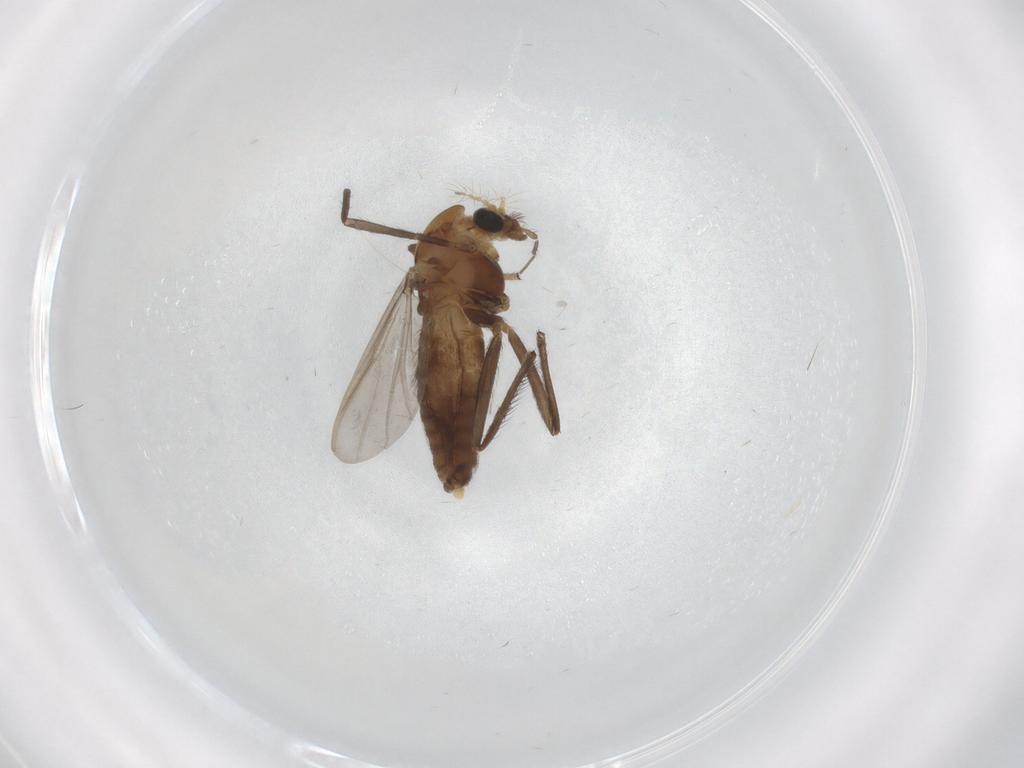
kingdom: Animalia
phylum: Arthropoda
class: Insecta
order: Diptera
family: Chironomidae
